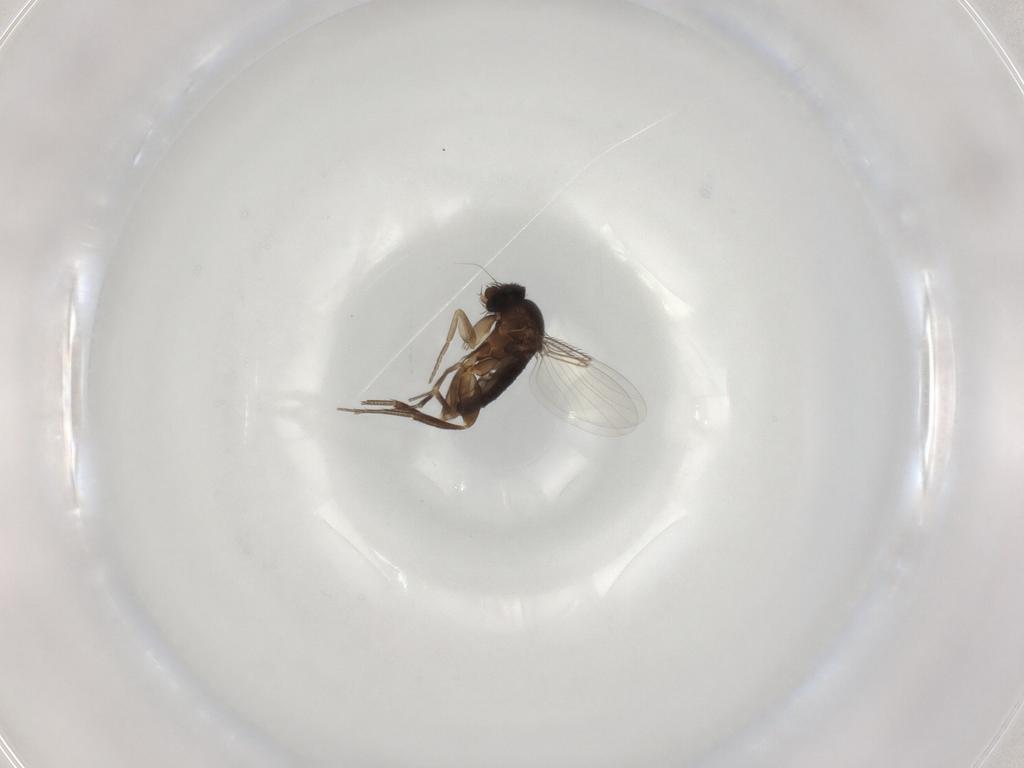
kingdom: Animalia
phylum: Arthropoda
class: Insecta
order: Diptera
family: Phoridae
